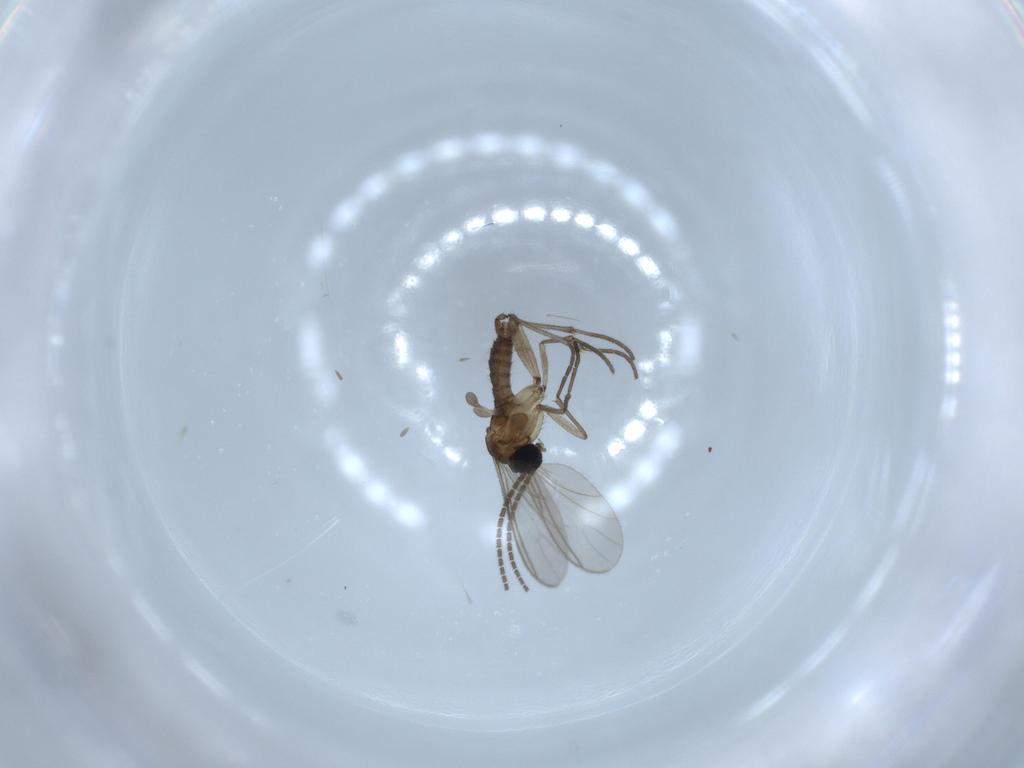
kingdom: Animalia
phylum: Arthropoda
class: Insecta
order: Diptera
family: Sciaridae
